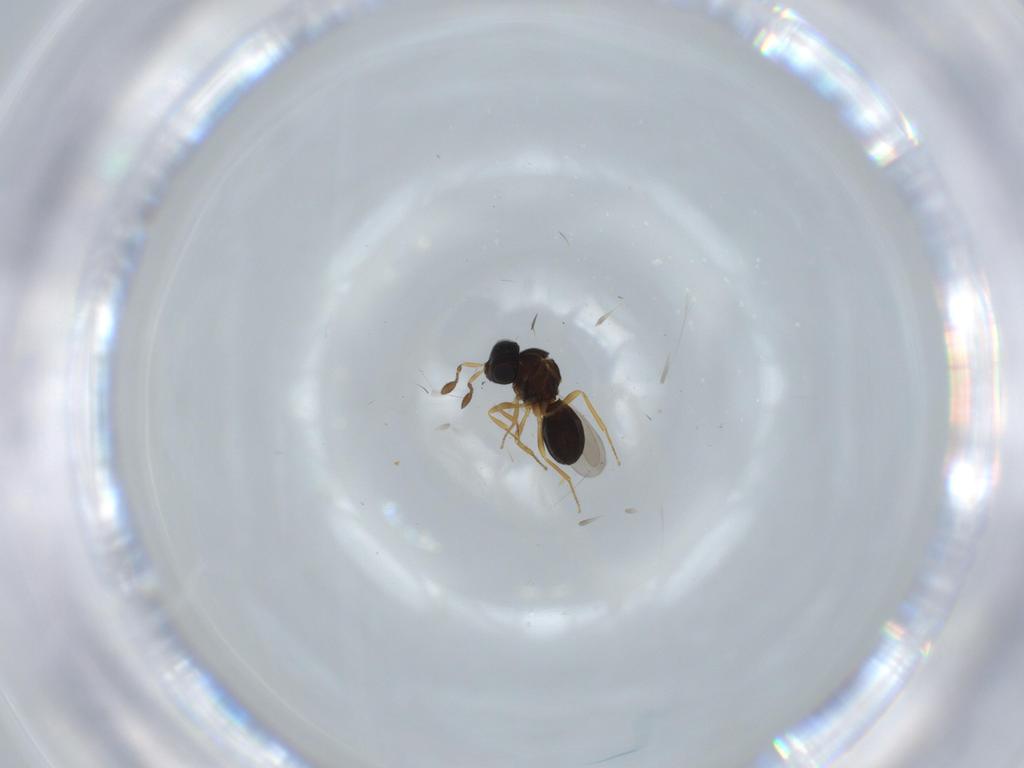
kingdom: Animalia
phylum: Arthropoda
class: Insecta
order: Hymenoptera
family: Scelionidae
